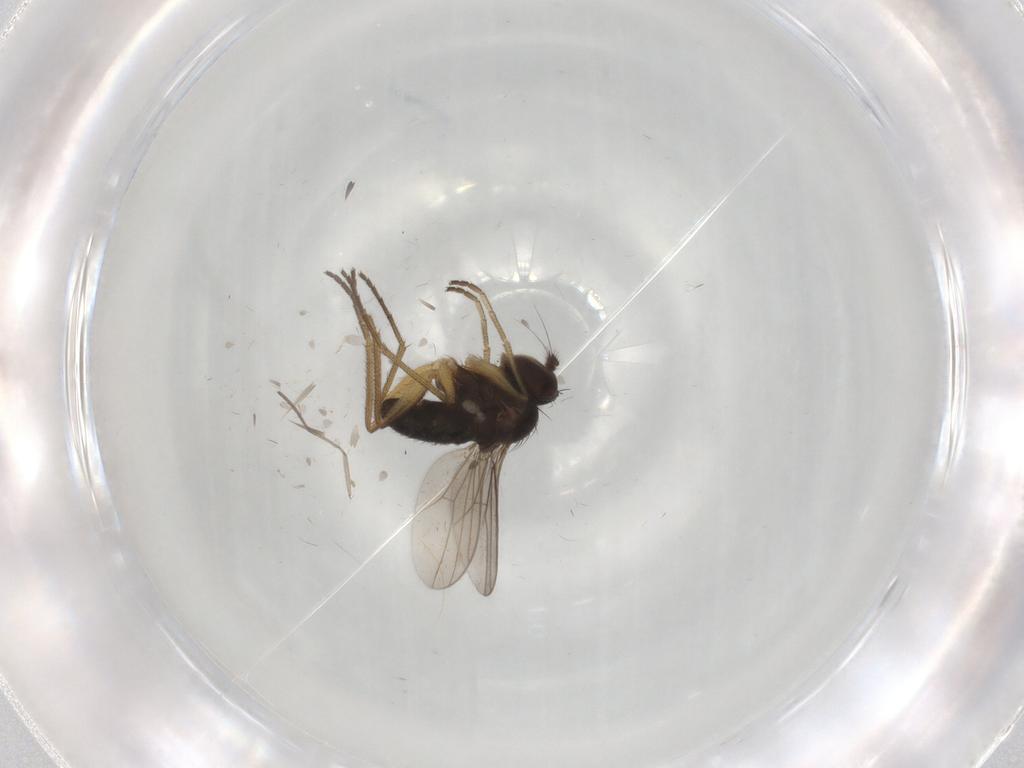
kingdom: Animalia
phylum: Arthropoda
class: Insecta
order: Diptera
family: Dolichopodidae
